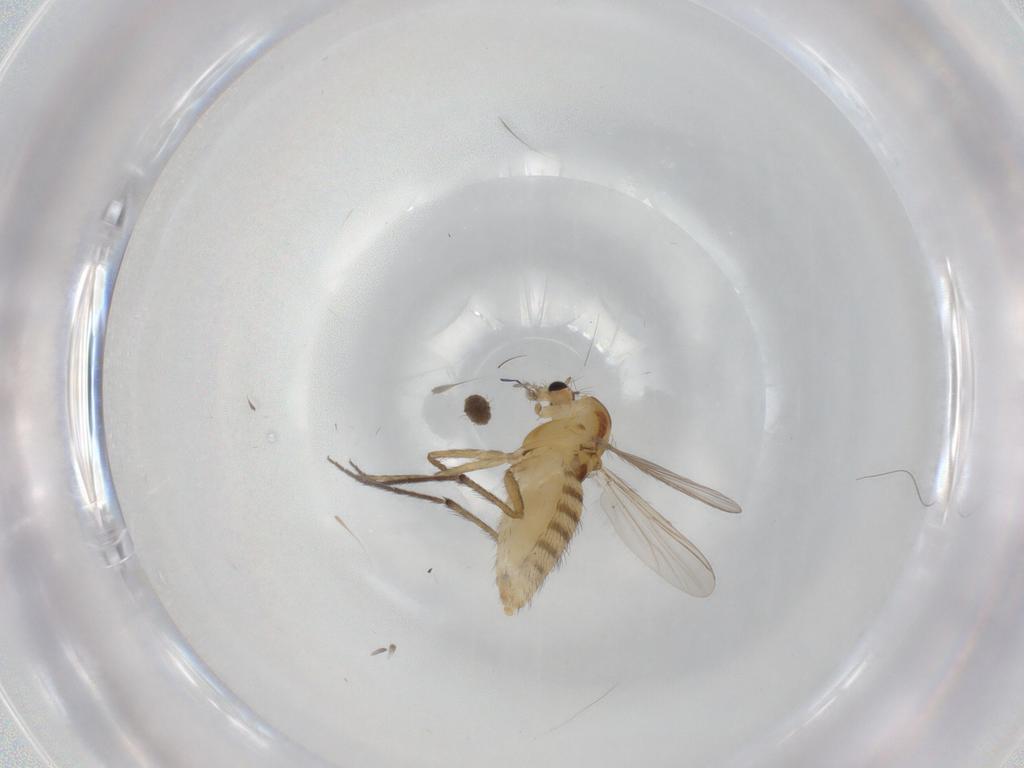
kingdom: Animalia
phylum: Arthropoda
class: Insecta
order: Diptera
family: Chironomidae
